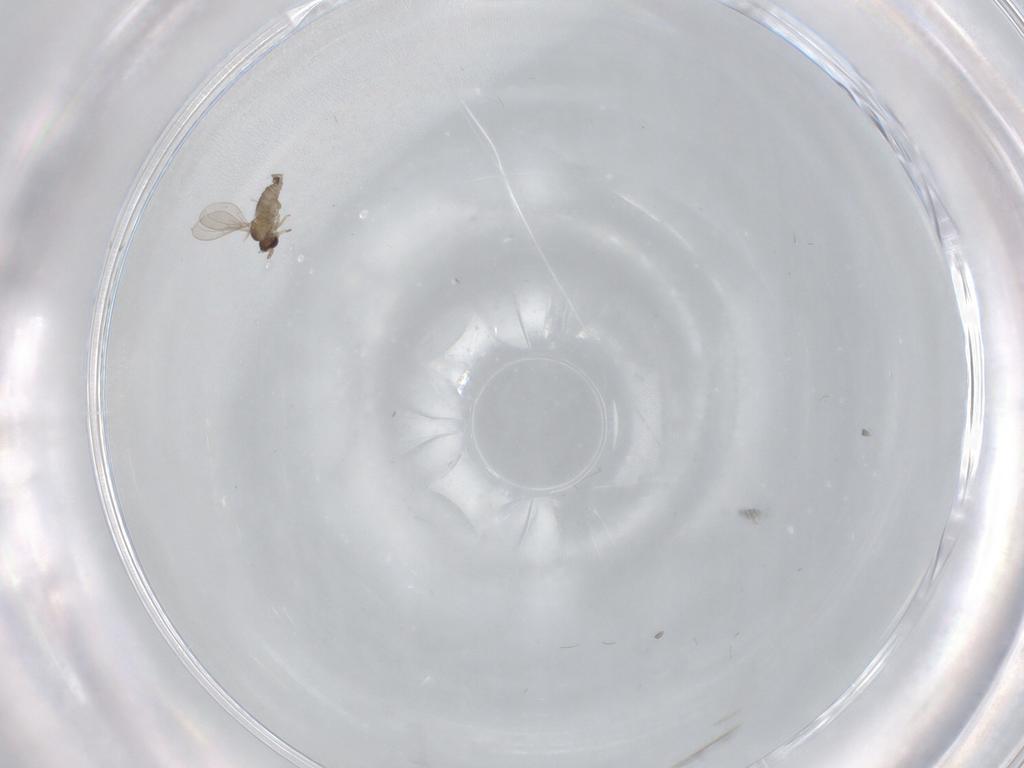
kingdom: Animalia
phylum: Arthropoda
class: Insecta
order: Diptera
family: Cecidomyiidae
